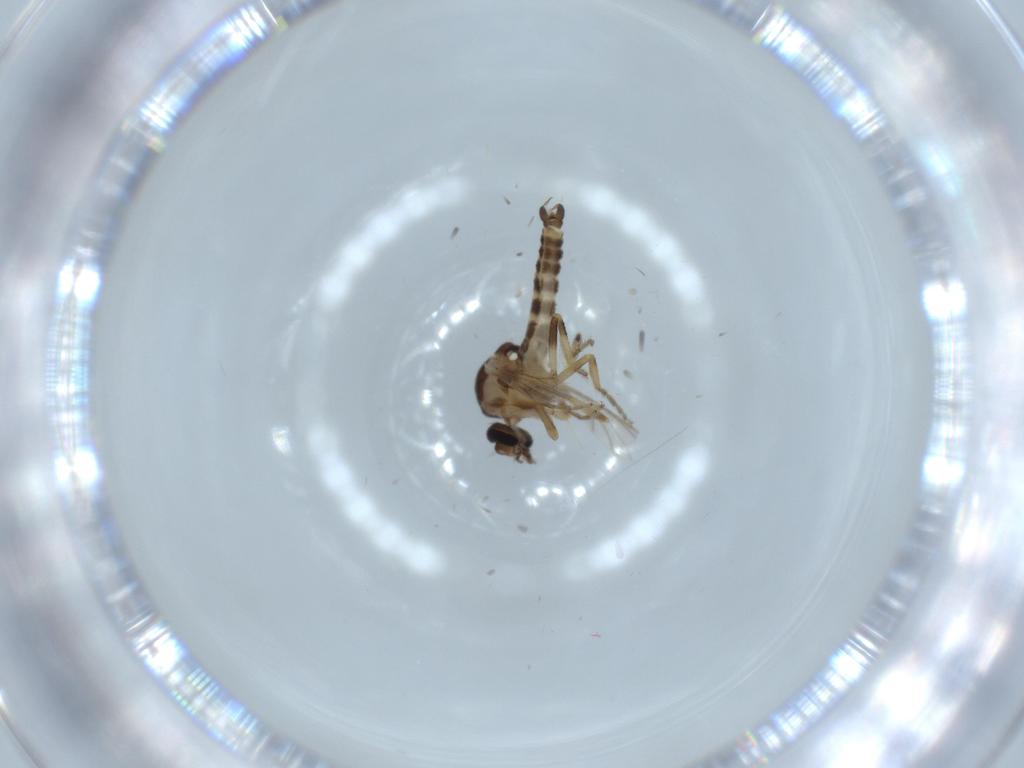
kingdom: Animalia
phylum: Arthropoda
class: Insecta
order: Diptera
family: Ceratopogonidae
